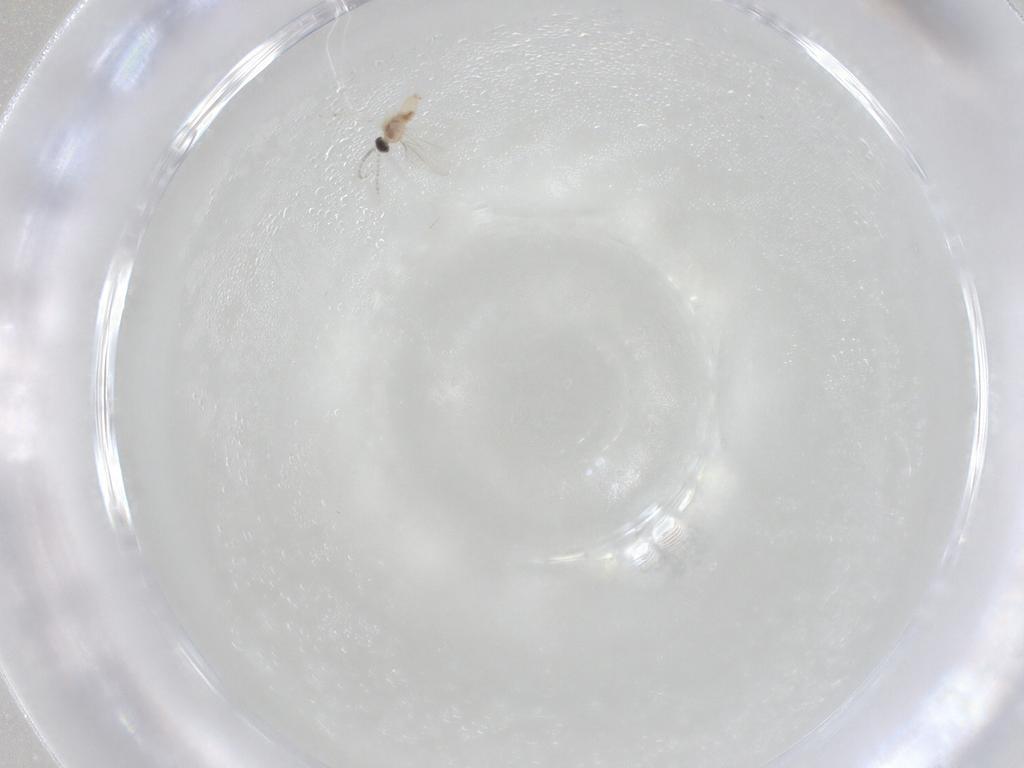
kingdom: Animalia
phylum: Arthropoda
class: Insecta
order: Diptera
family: Cecidomyiidae
